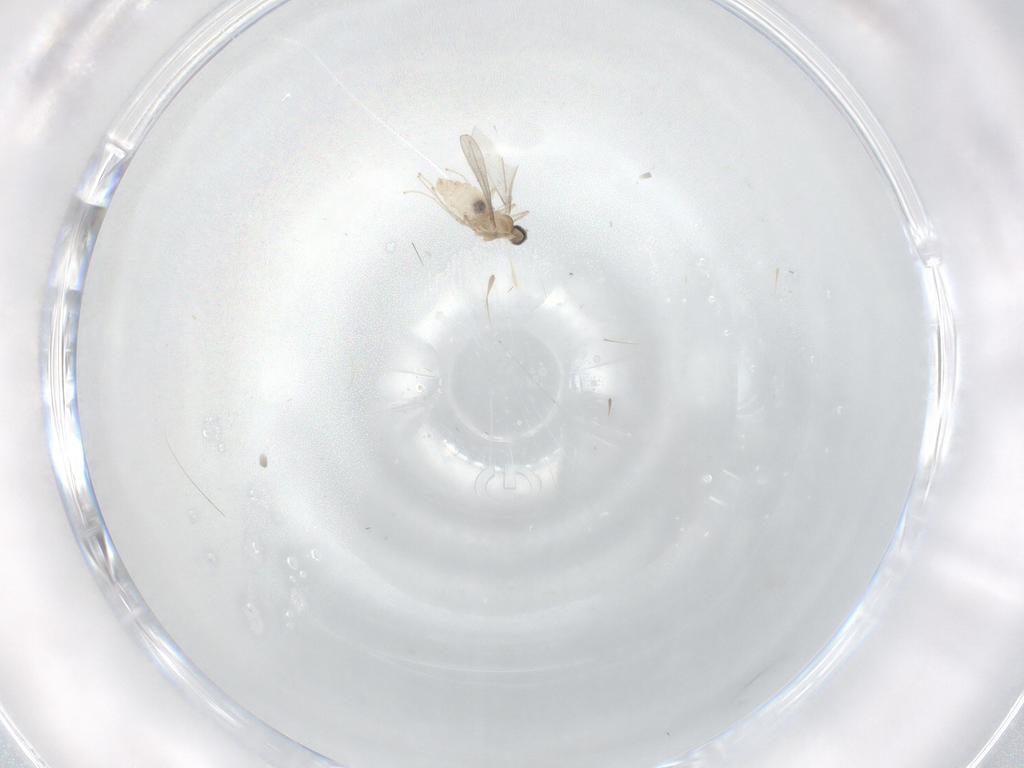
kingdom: Animalia
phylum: Arthropoda
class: Insecta
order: Diptera
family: Cecidomyiidae
